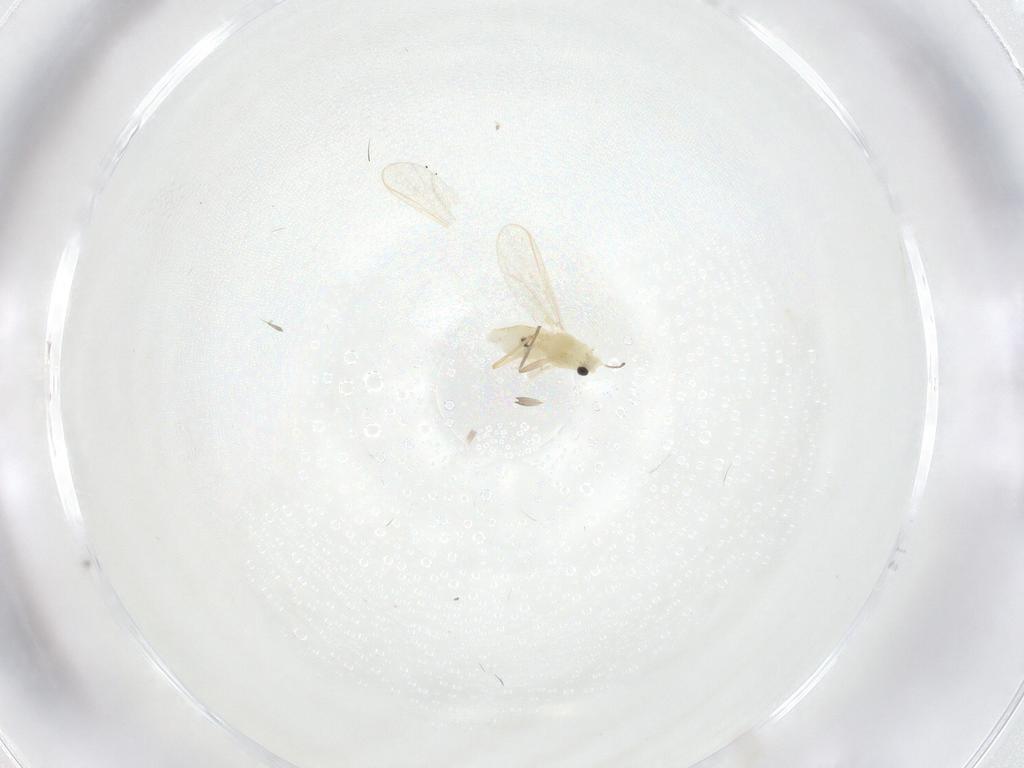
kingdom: Animalia
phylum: Arthropoda
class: Insecta
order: Diptera
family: Chironomidae
